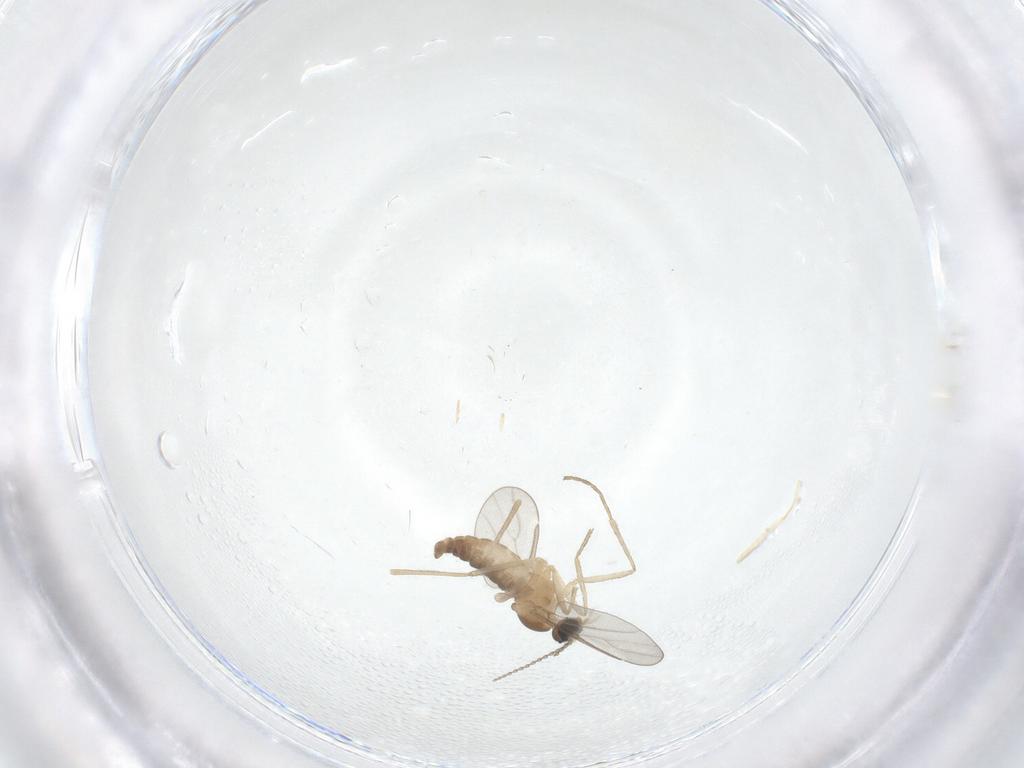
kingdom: Animalia
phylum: Arthropoda
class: Insecta
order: Diptera
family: Cecidomyiidae
